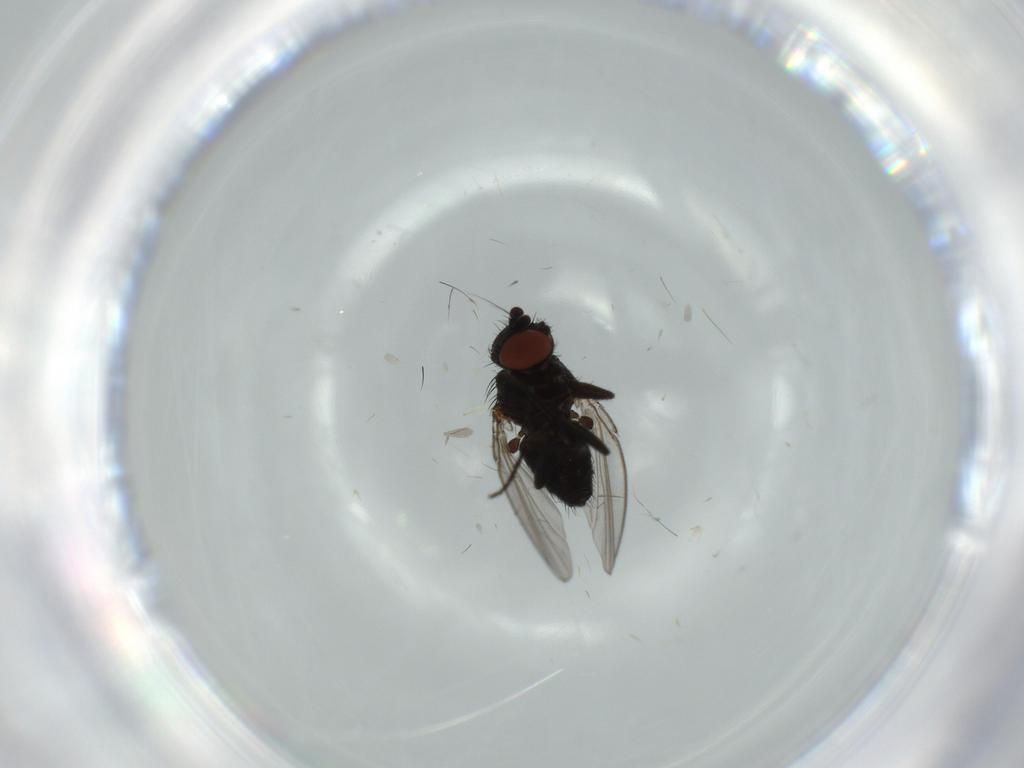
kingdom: Animalia
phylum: Arthropoda
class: Insecta
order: Diptera
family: Milichiidae
